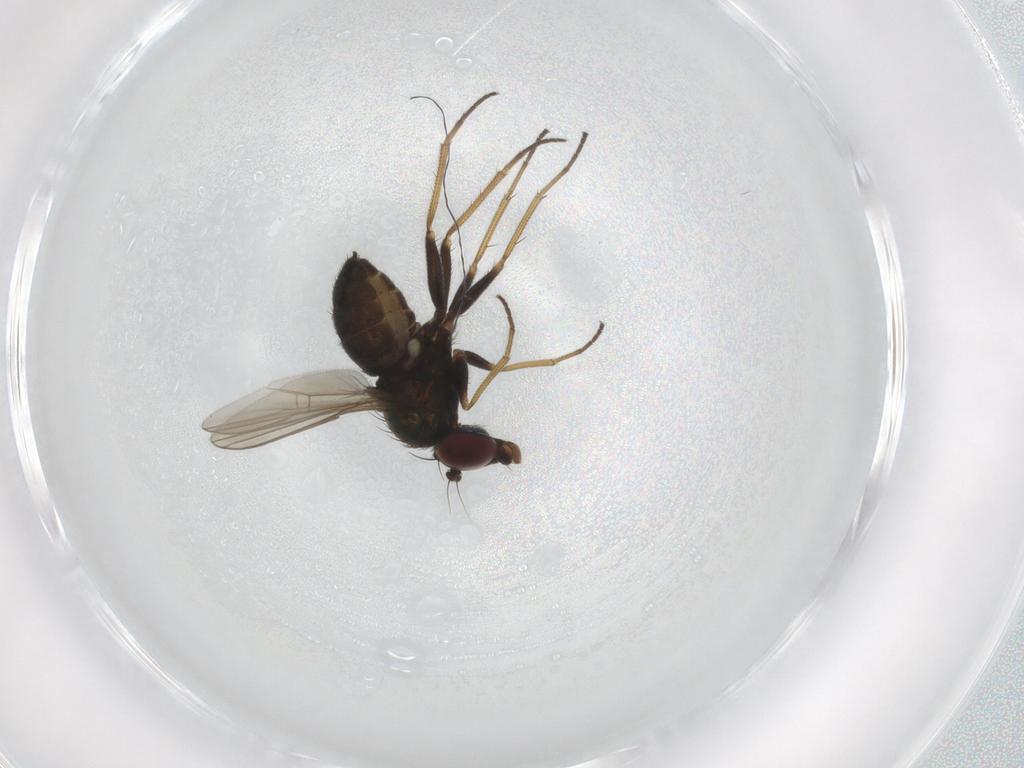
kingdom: Animalia
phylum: Arthropoda
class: Insecta
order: Diptera
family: Dolichopodidae
